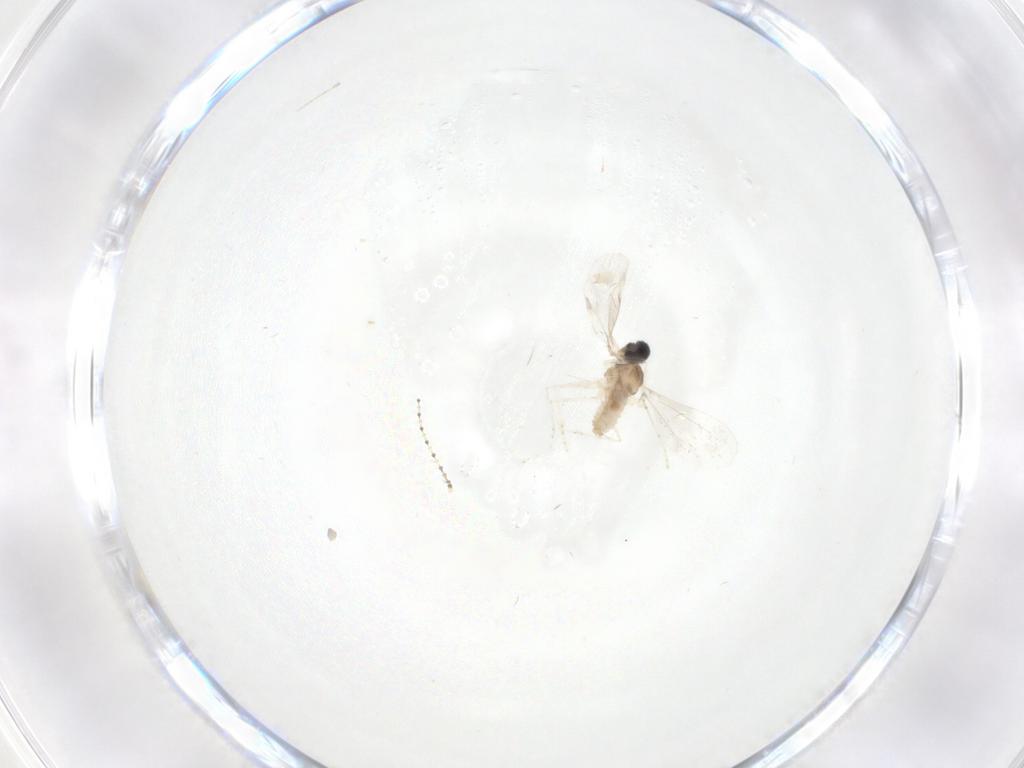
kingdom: Animalia
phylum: Arthropoda
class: Insecta
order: Diptera
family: Cecidomyiidae
